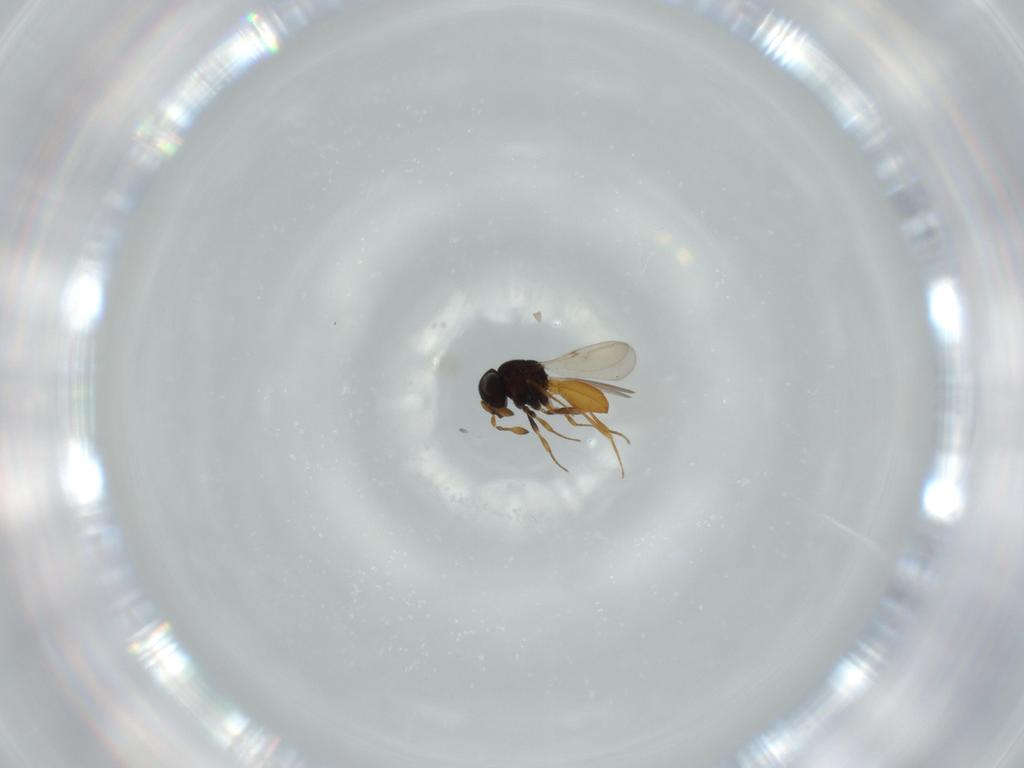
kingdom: Animalia
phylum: Arthropoda
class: Insecta
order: Hymenoptera
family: Scelionidae
